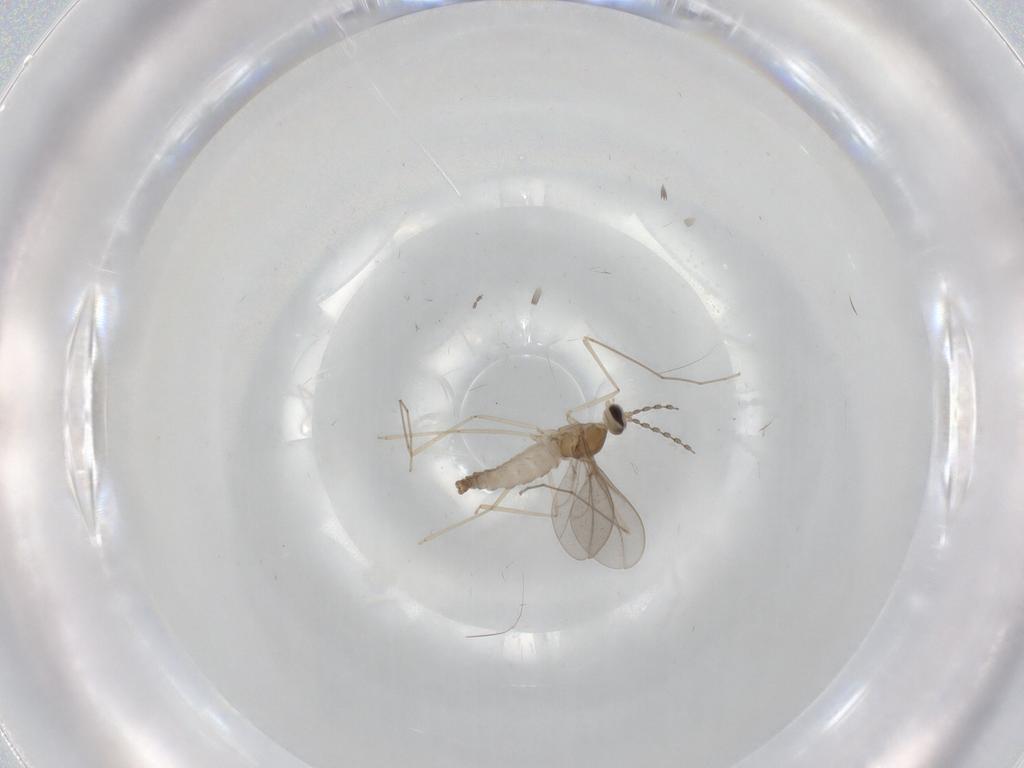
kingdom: Animalia
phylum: Arthropoda
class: Insecta
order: Diptera
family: Cecidomyiidae
